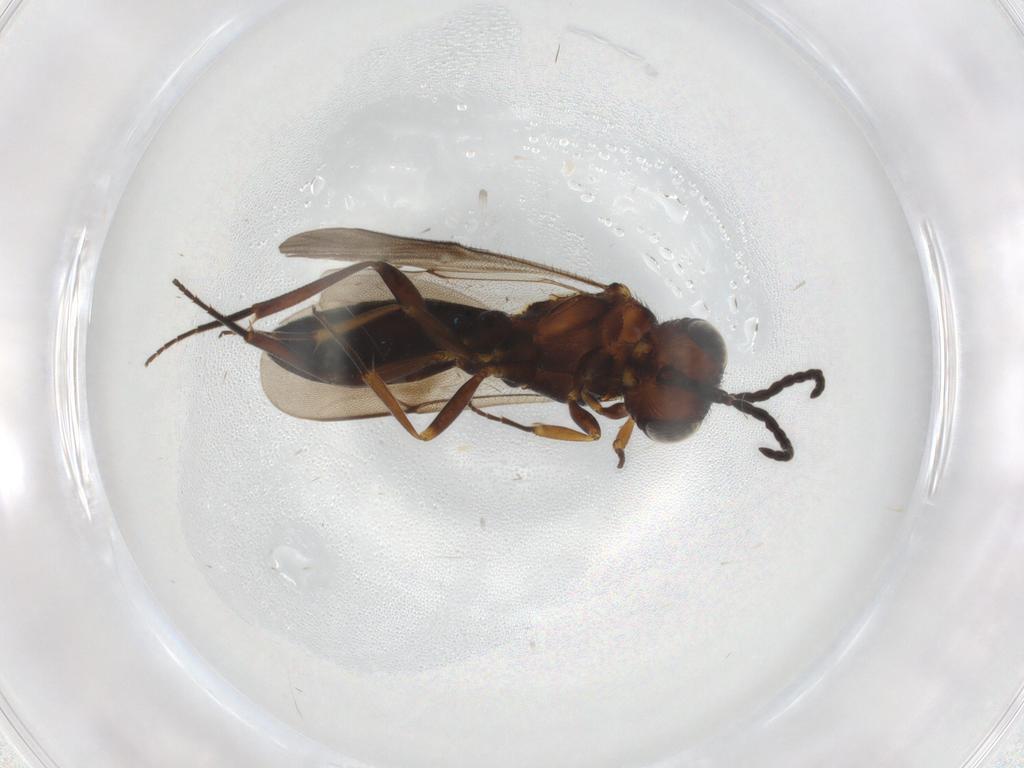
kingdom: Animalia
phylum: Arthropoda
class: Insecta
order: Hymenoptera
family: Scelionidae
